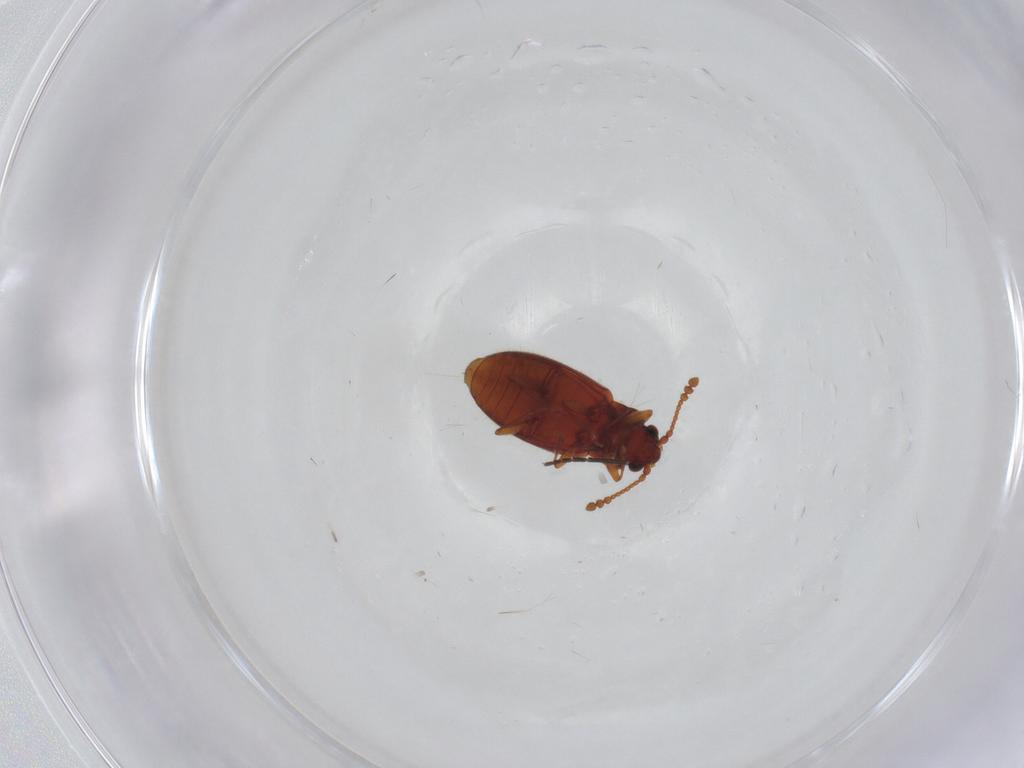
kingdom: Animalia
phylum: Arthropoda
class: Insecta
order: Coleoptera
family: Cryptophagidae
